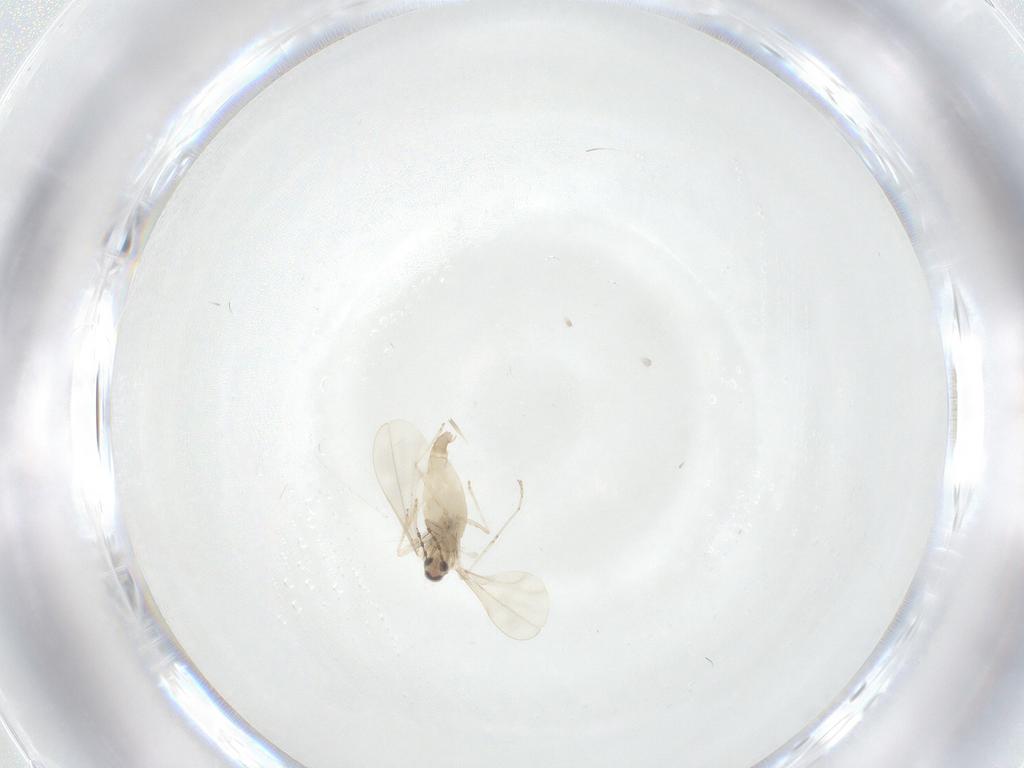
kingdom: Animalia
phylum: Arthropoda
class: Insecta
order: Diptera
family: Cecidomyiidae
